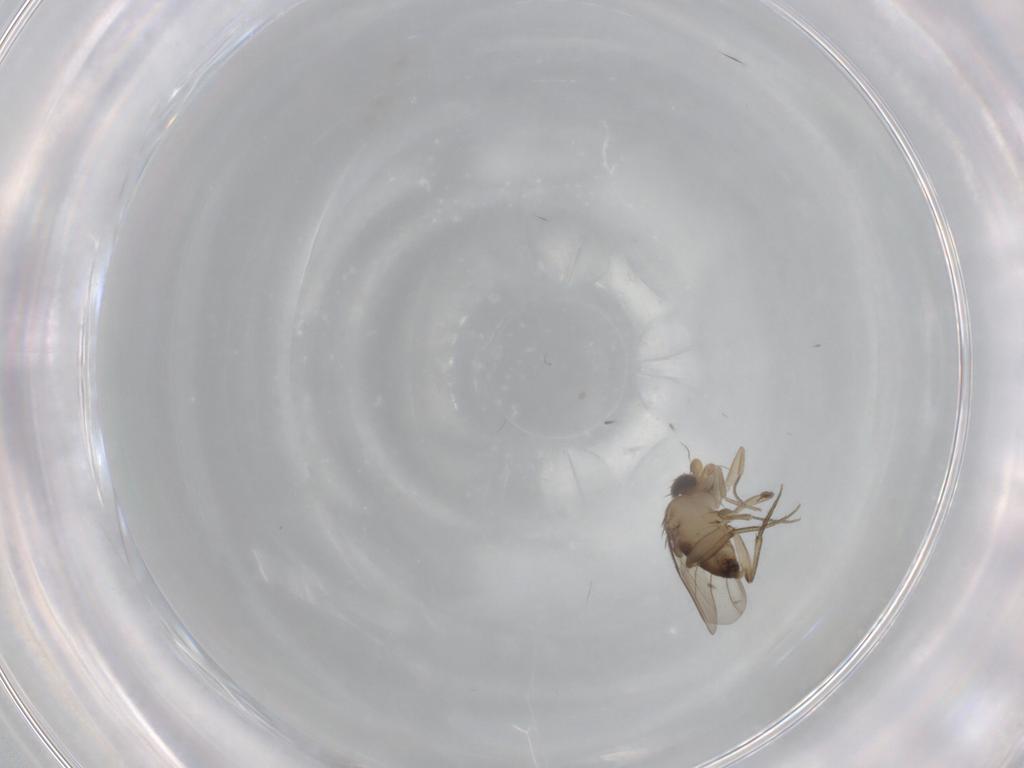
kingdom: Animalia
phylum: Arthropoda
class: Insecta
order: Diptera
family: Phoridae
